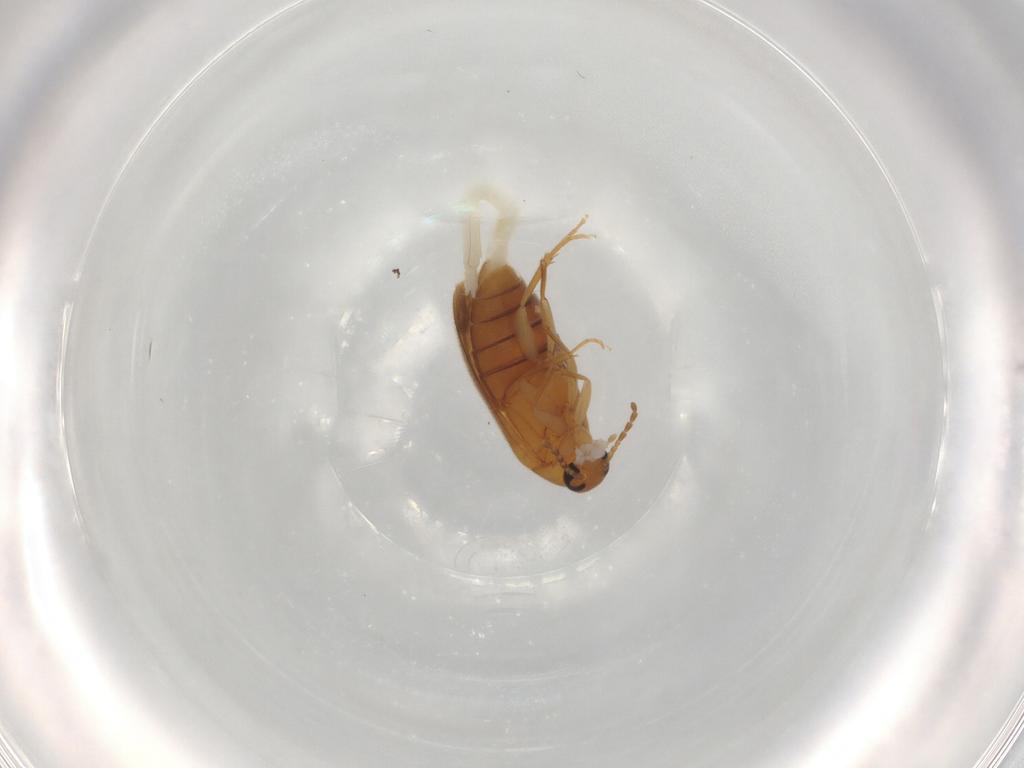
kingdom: Animalia
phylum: Arthropoda
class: Insecta
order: Coleoptera
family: Scraptiidae
